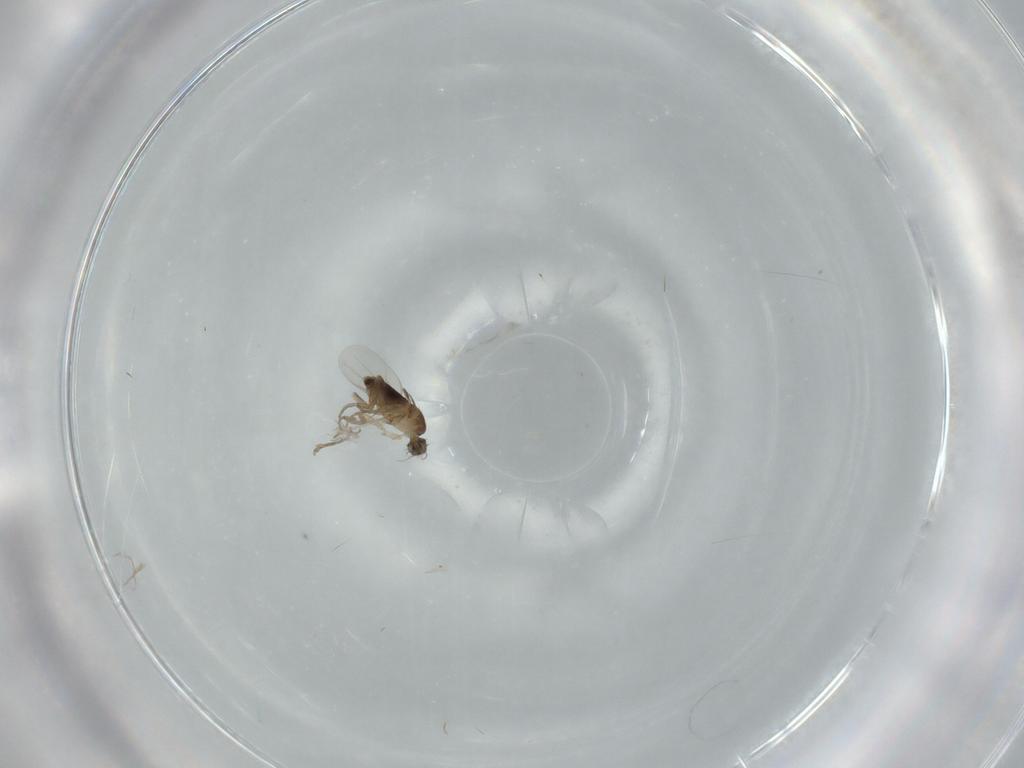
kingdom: Animalia
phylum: Arthropoda
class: Insecta
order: Diptera
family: Phoridae
